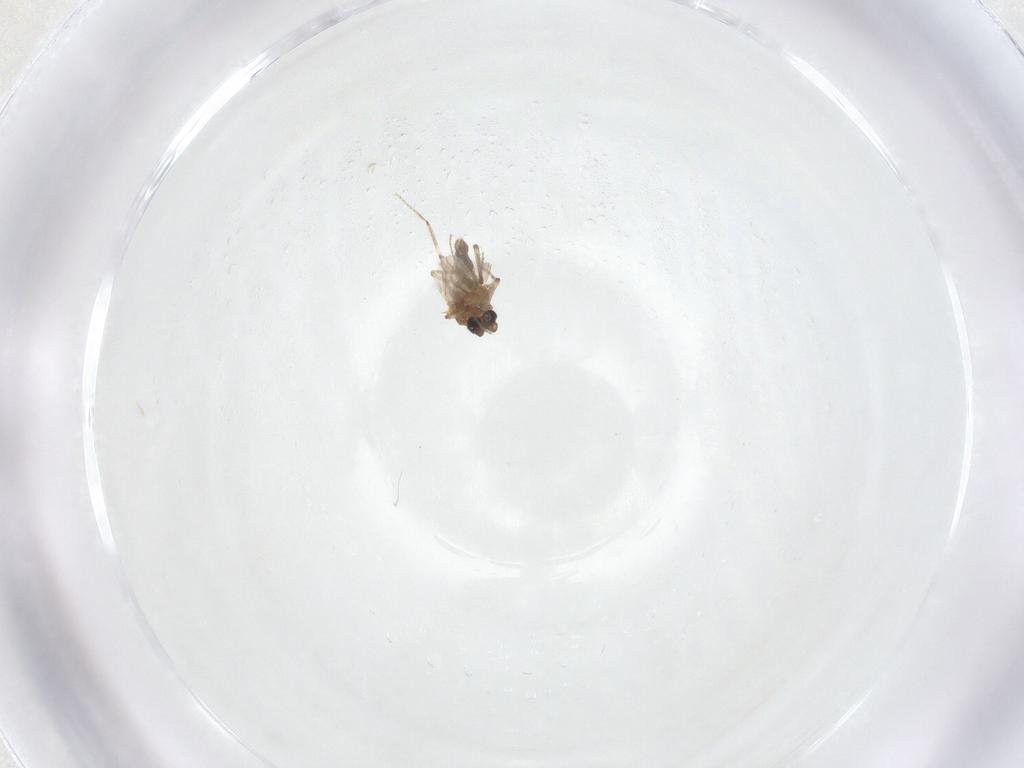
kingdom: Animalia
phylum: Arthropoda
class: Insecta
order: Diptera
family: Ceratopogonidae
